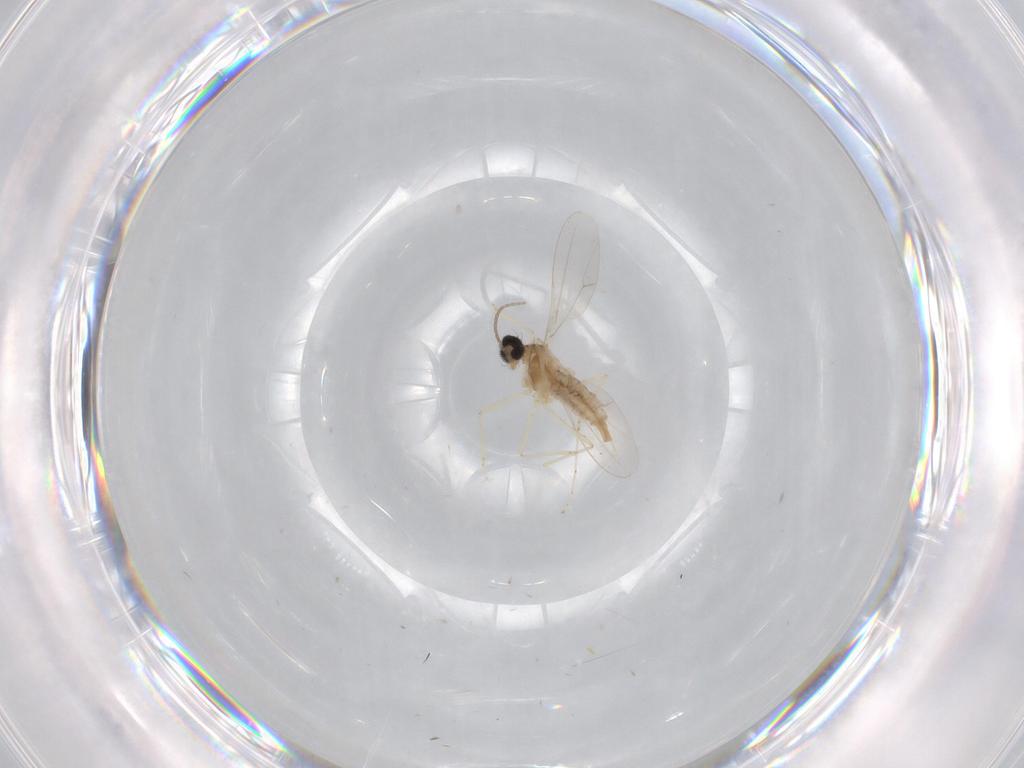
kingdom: Animalia
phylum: Arthropoda
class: Insecta
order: Diptera
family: Cecidomyiidae
